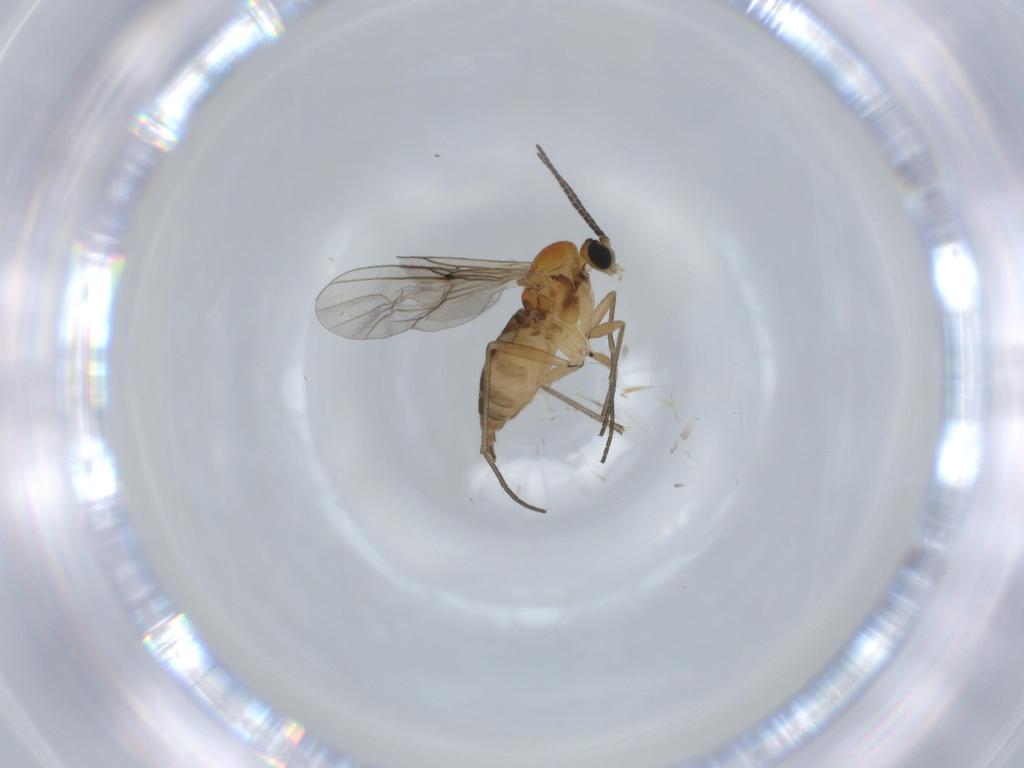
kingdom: Animalia
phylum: Arthropoda
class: Insecta
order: Diptera
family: Sciaridae
